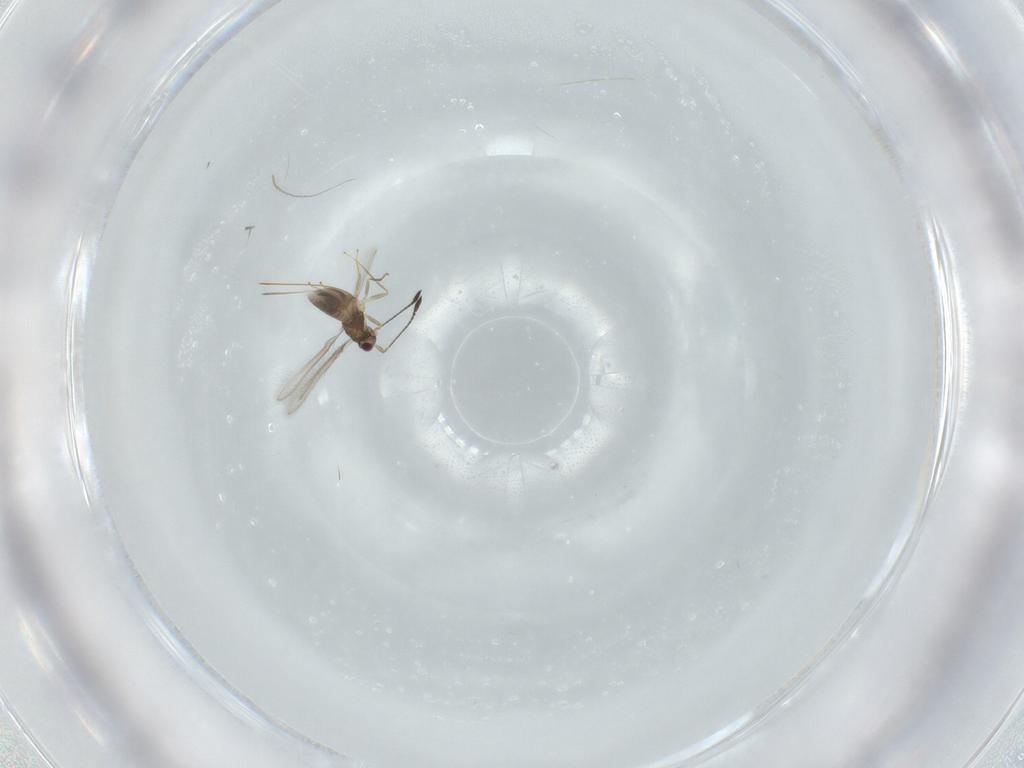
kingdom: Animalia
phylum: Arthropoda
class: Insecta
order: Hymenoptera
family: Mymaridae
